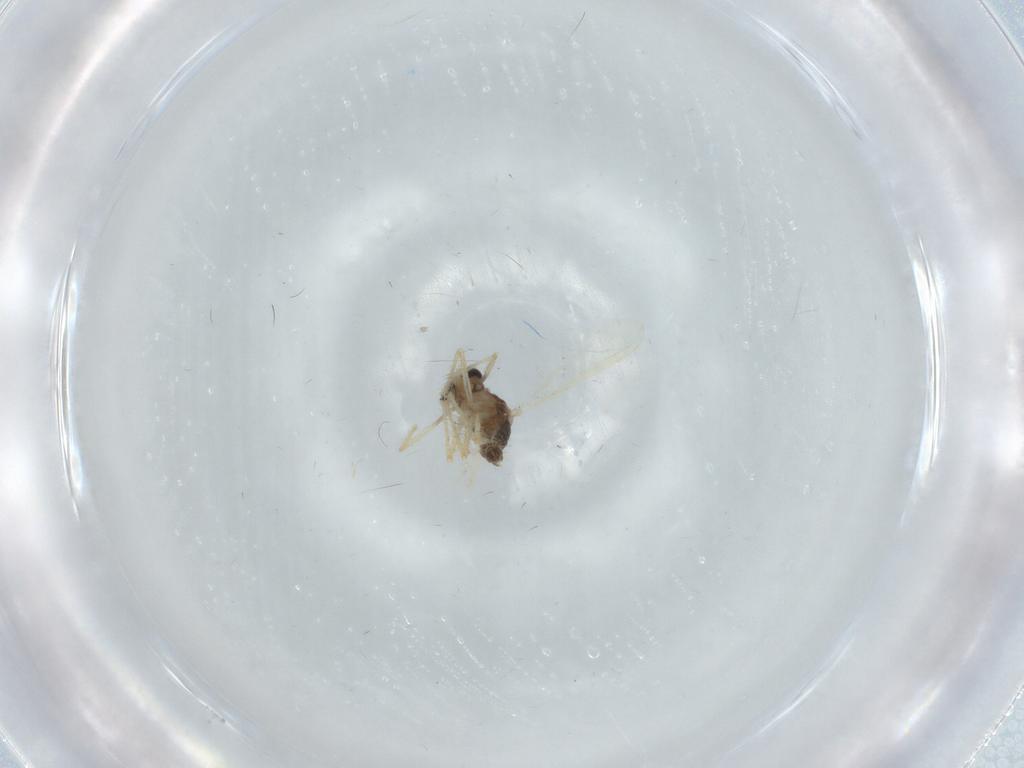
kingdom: Animalia
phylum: Arthropoda
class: Insecta
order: Diptera
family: Chironomidae
